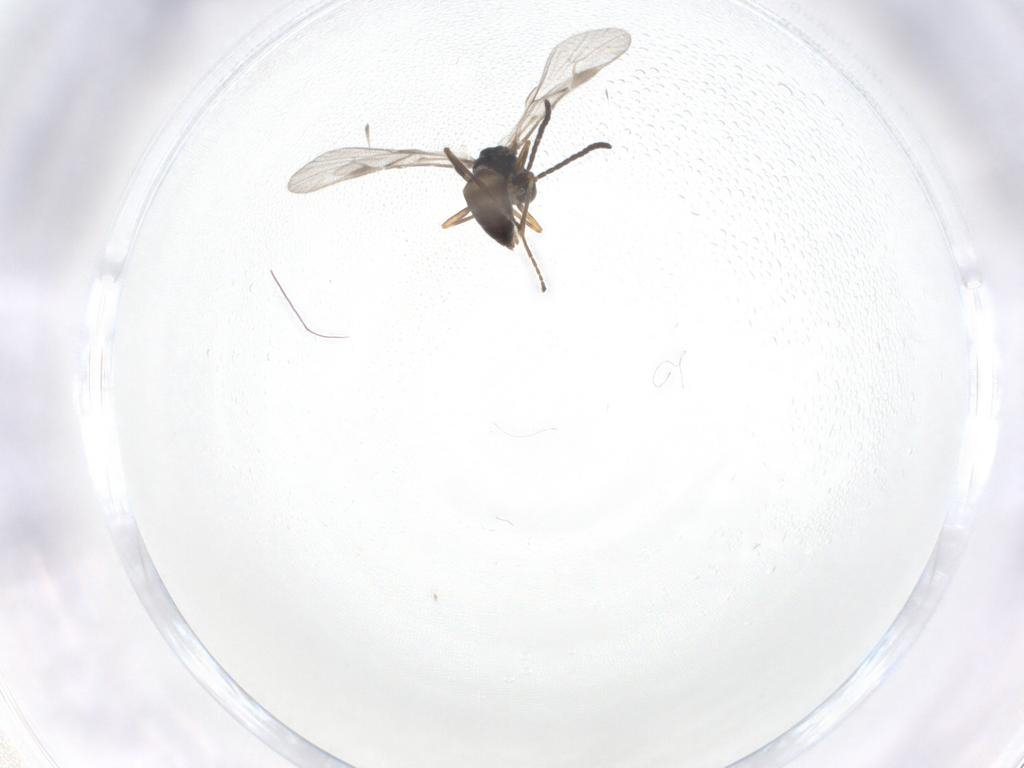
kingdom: Animalia
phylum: Arthropoda
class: Insecta
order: Hymenoptera
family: Braconidae
